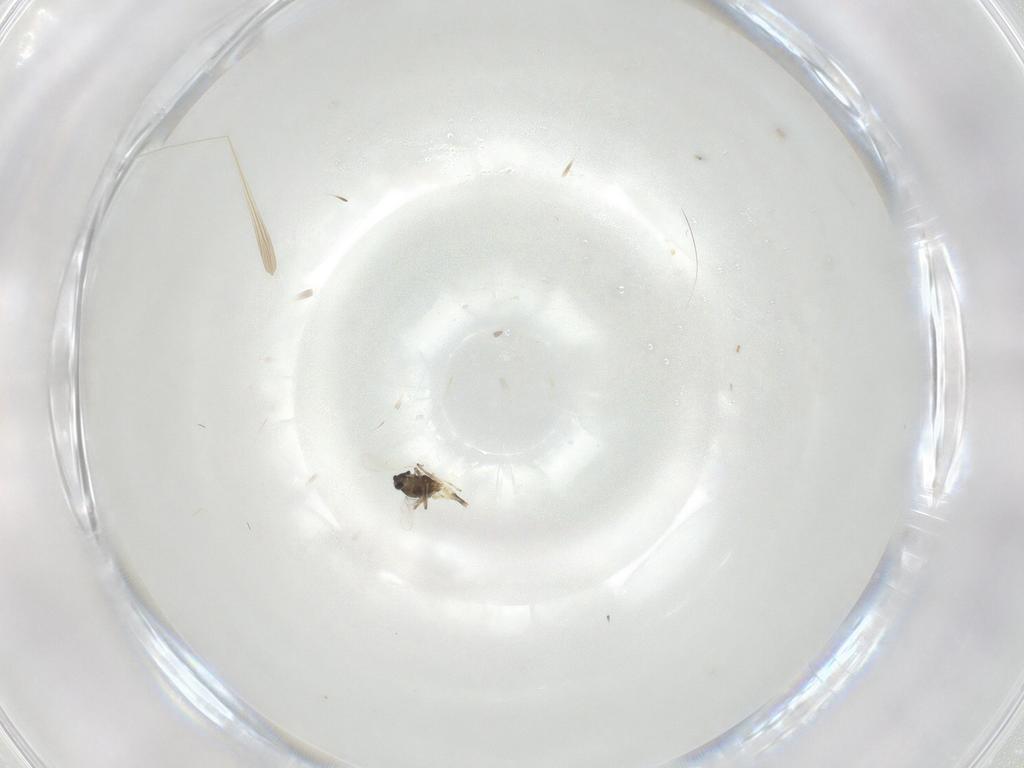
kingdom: Animalia
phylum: Arthropoda
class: Insecta
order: Diptera
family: Chironomidae
